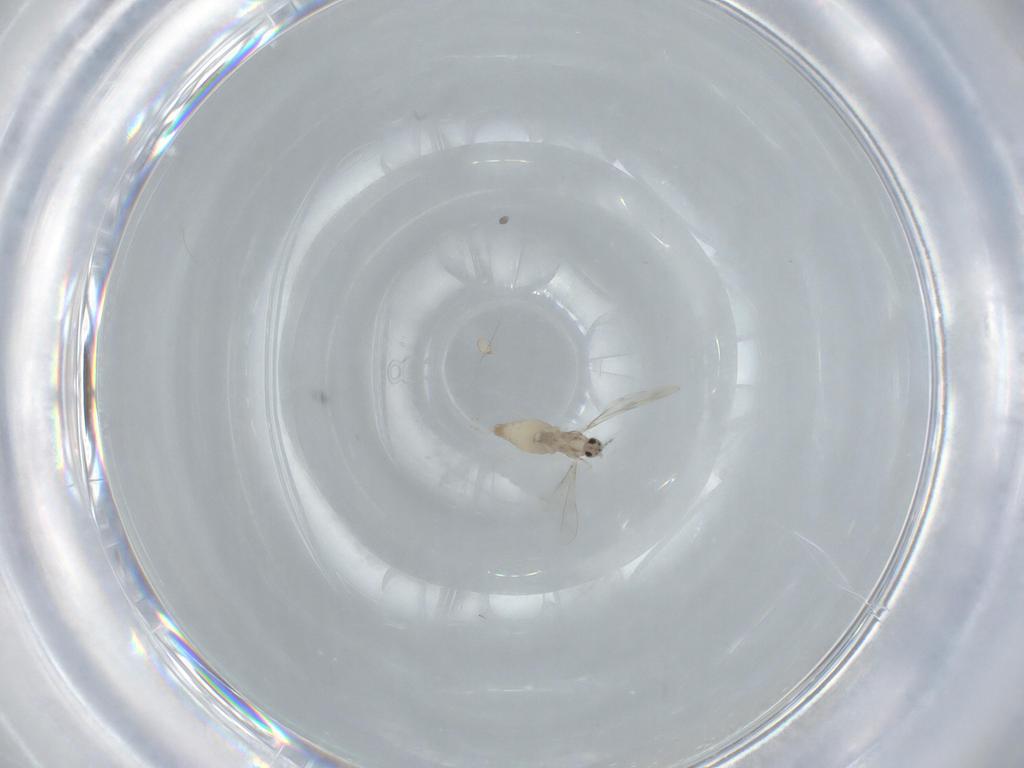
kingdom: Animalia
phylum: Arthropoda
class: Insecta
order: Diptera
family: Cecidomyiidae
